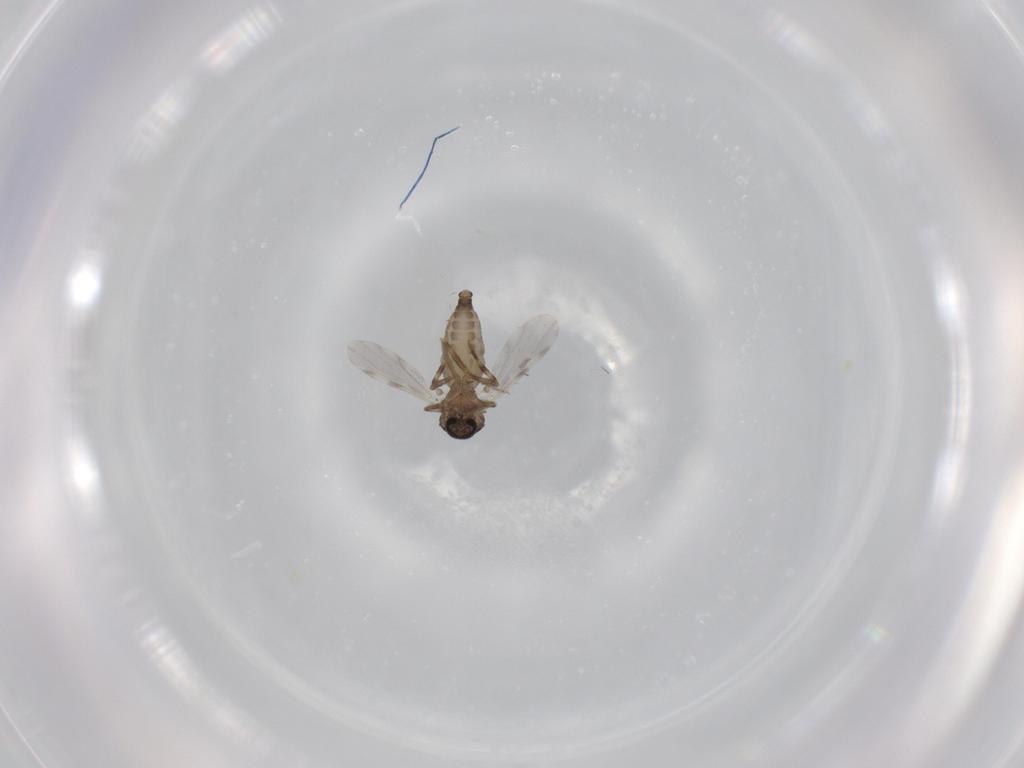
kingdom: Animalia
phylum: Arthropoda
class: Insecta
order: Diptera
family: Ceratopogonidae
